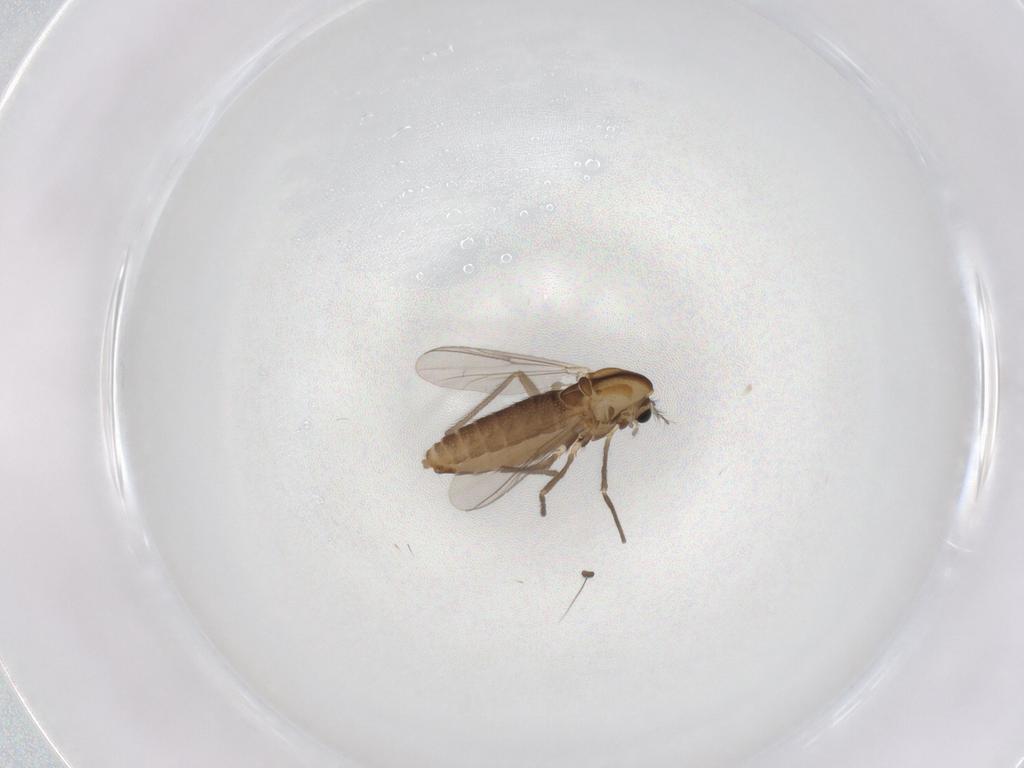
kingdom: Animalia
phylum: Arthropoda
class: Insecta
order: Diptera
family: Chironomidae
